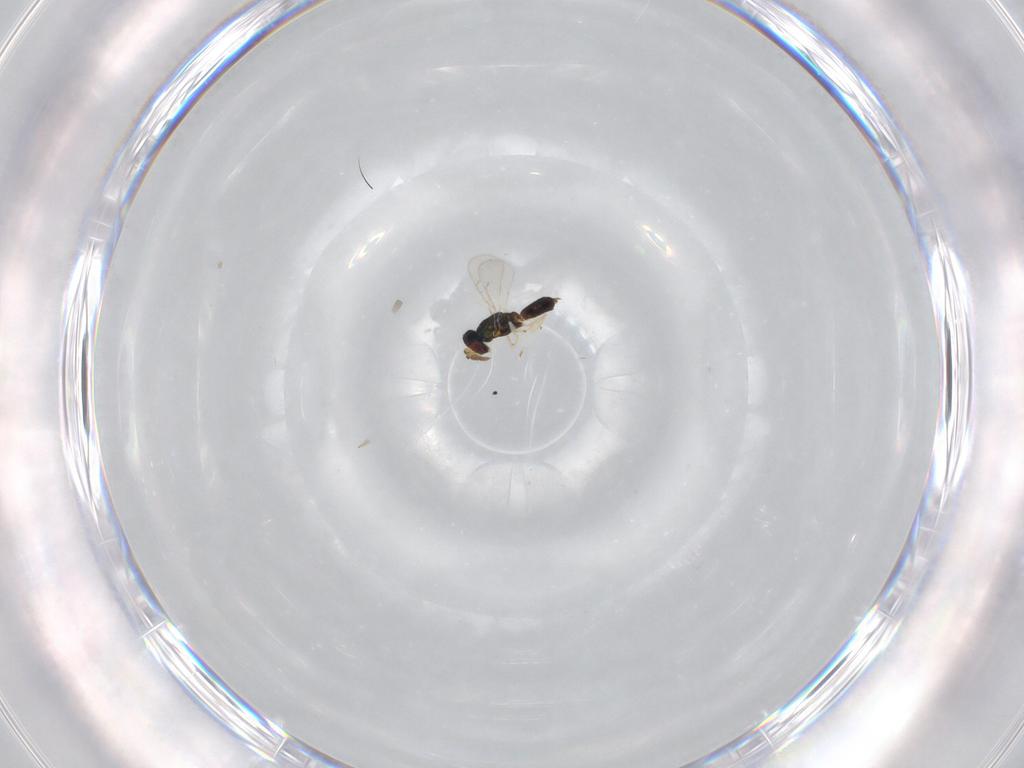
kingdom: Animalia
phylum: Arthropoda
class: Insecta
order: Hymenoptera
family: Eulophidae
